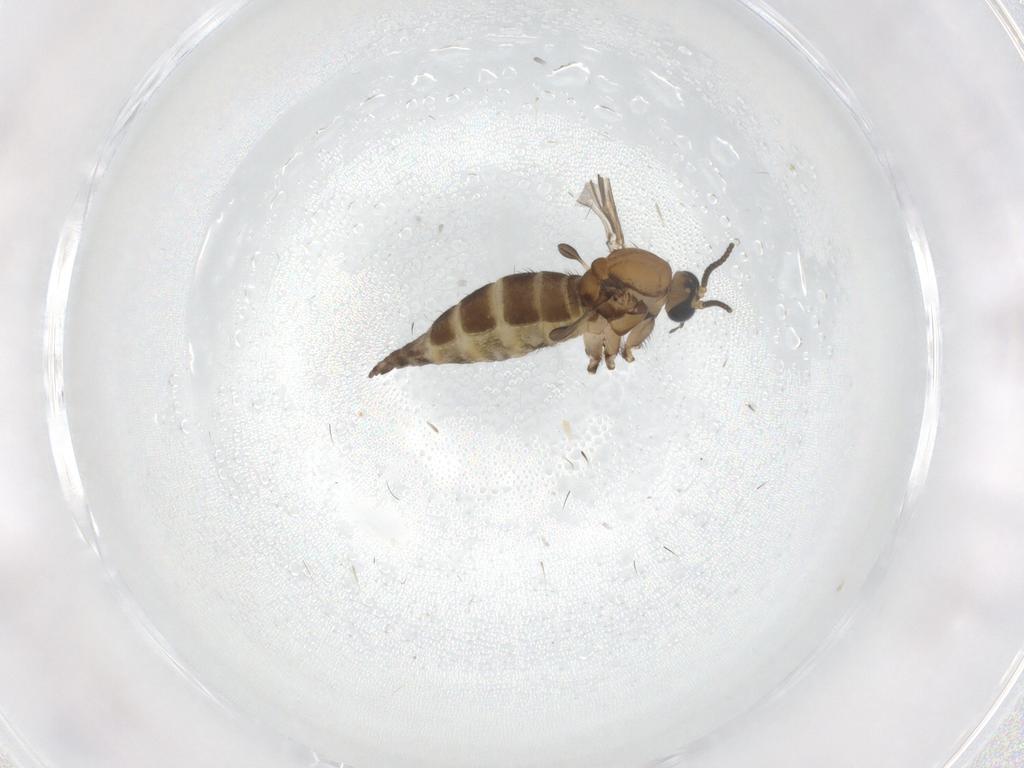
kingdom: Animalia
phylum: Arthropoda
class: Insecta
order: Diptera
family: Sciaridae
